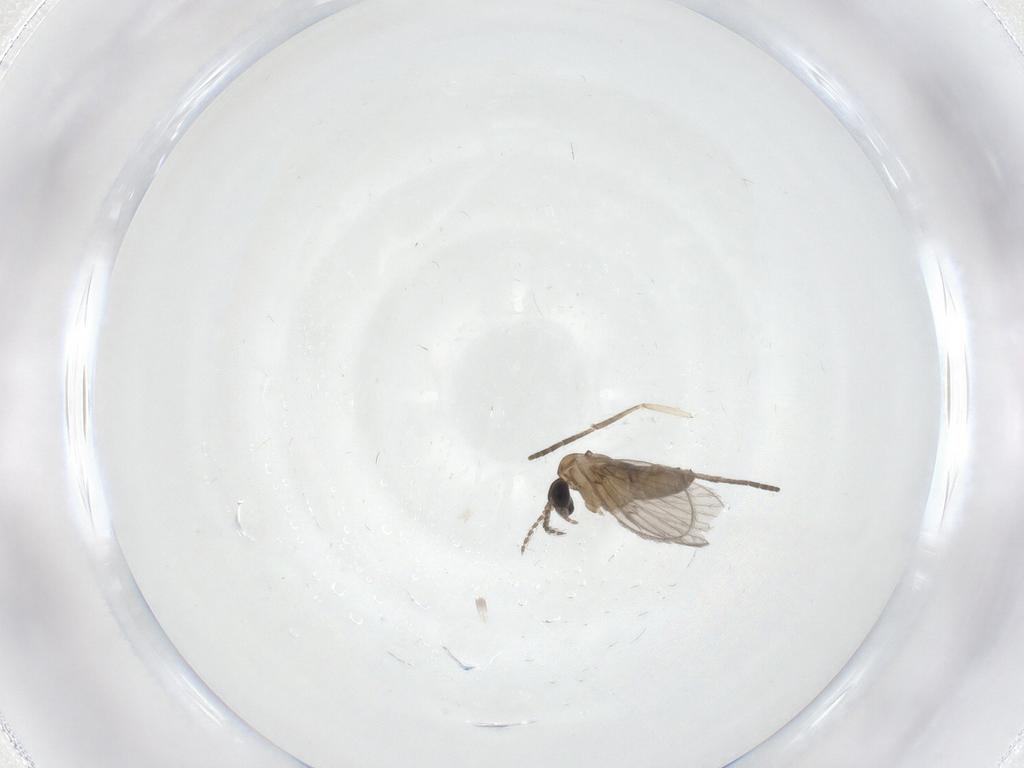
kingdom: Animalia
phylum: Arthropoda
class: Insecta
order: Diptera
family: Cecidomyiidae
